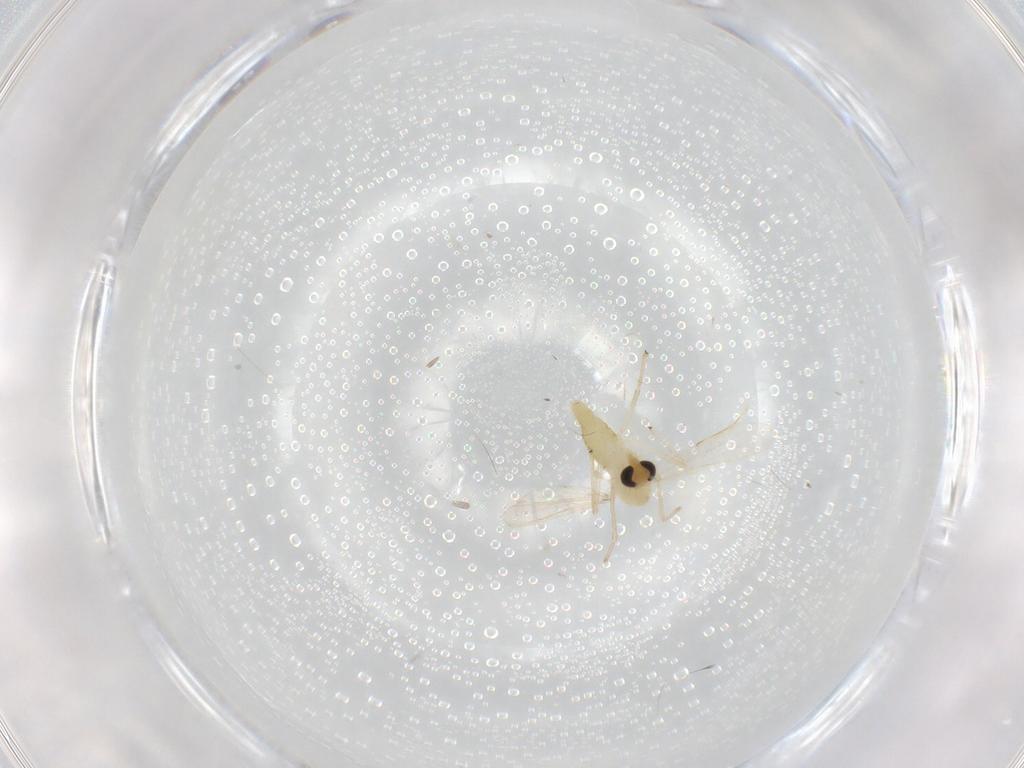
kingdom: Animalia
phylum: Arthropoda
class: Insecta
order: Diptera
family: Chironomidae
